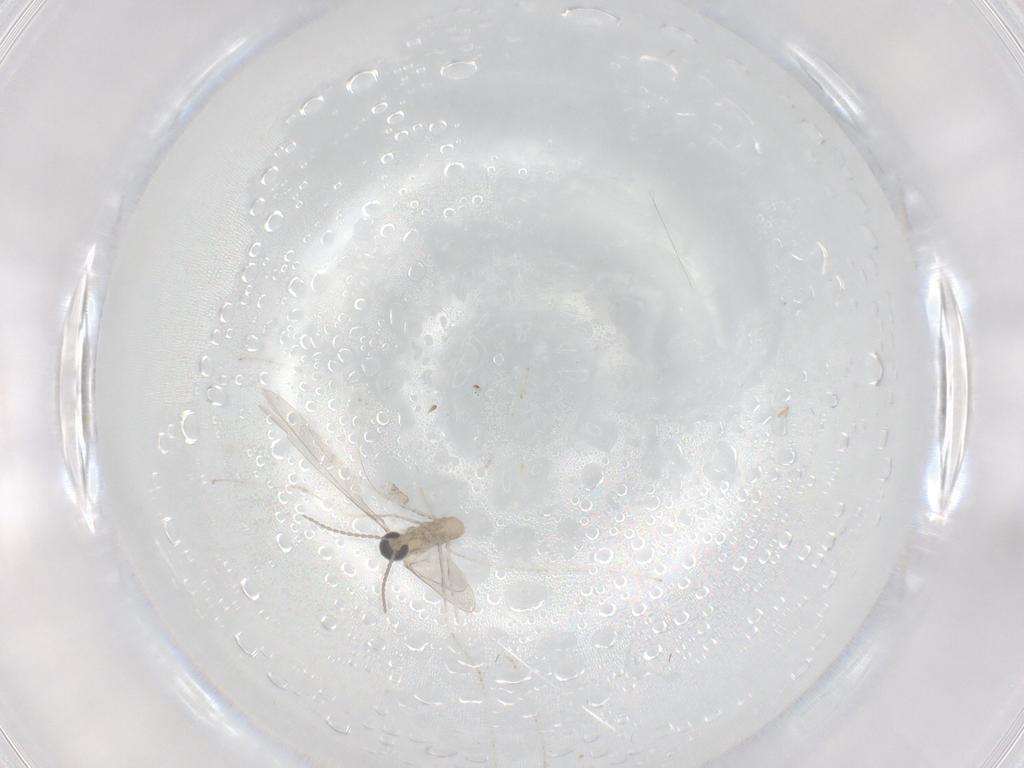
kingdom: Animalia
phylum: Arthropoda
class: Insecta
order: Diptera
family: Cecidomyiidae
